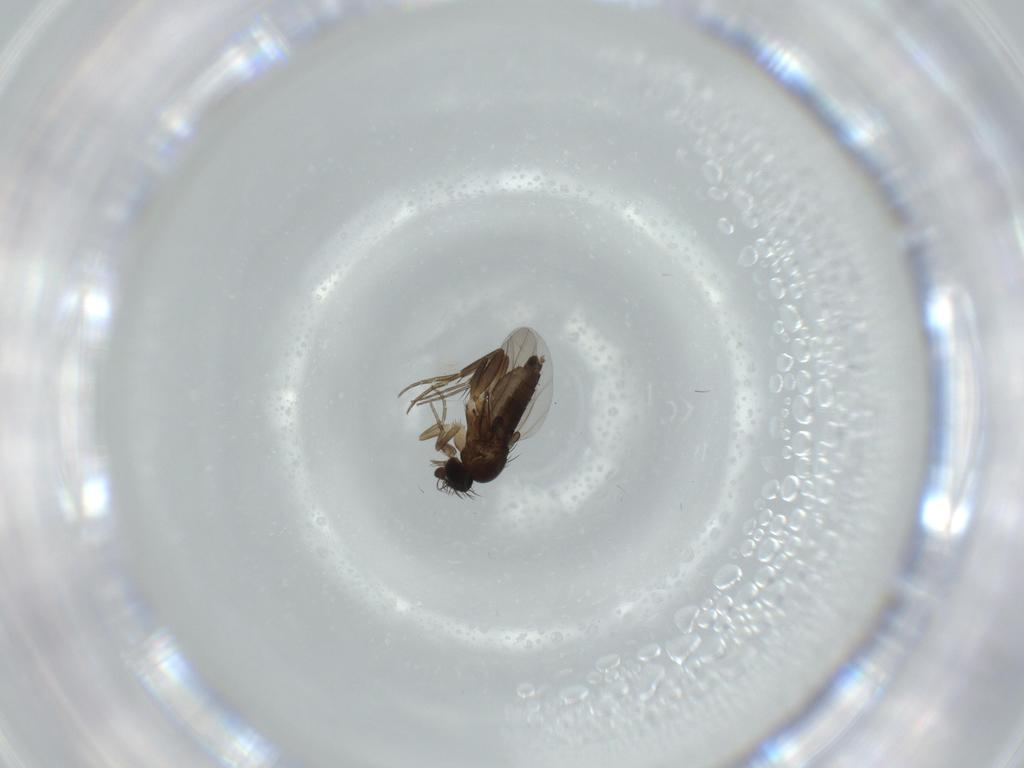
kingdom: Animalia
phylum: Arthropoda
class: Insecta
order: Diptera
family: Phoridae
